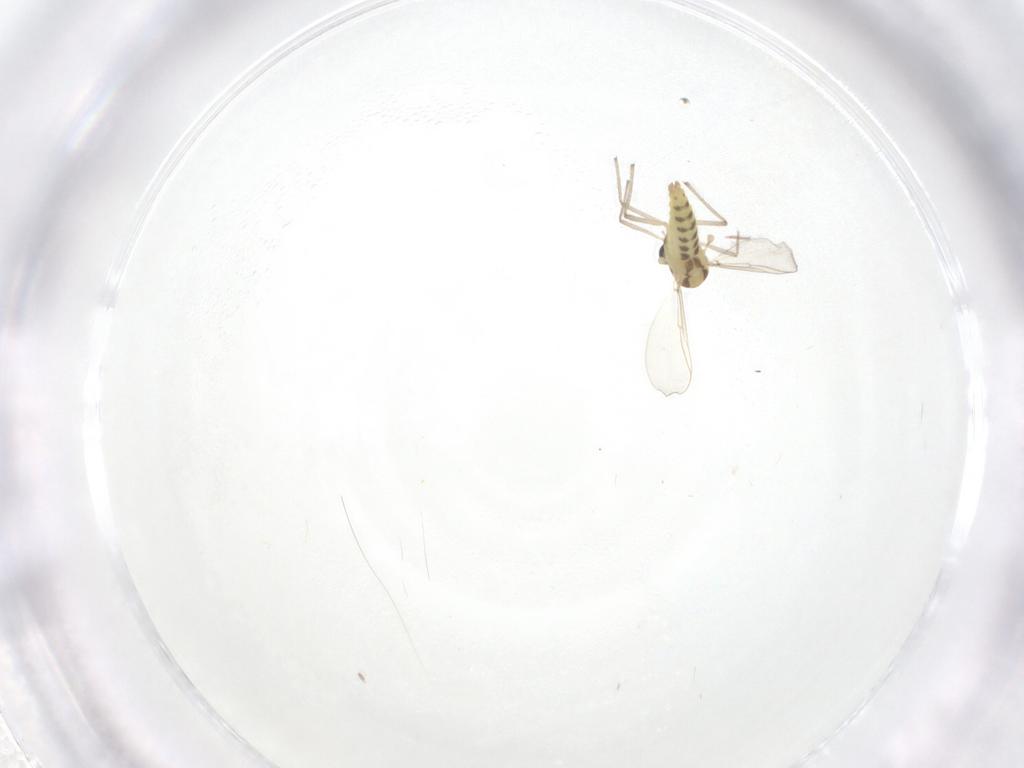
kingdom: Animalia
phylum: Arthropoda
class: Insecta
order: Diptera
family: Chironomidae
